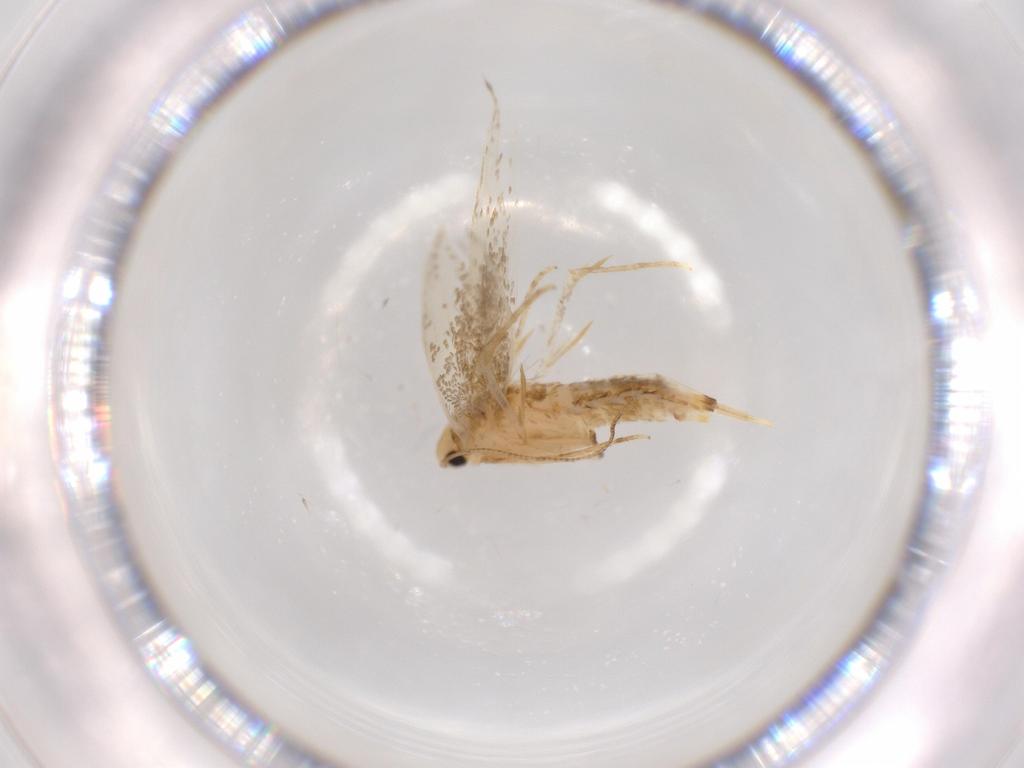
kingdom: Animalia
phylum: Arthropoda
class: Insecta
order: Lepidoptera
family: Tineidae
